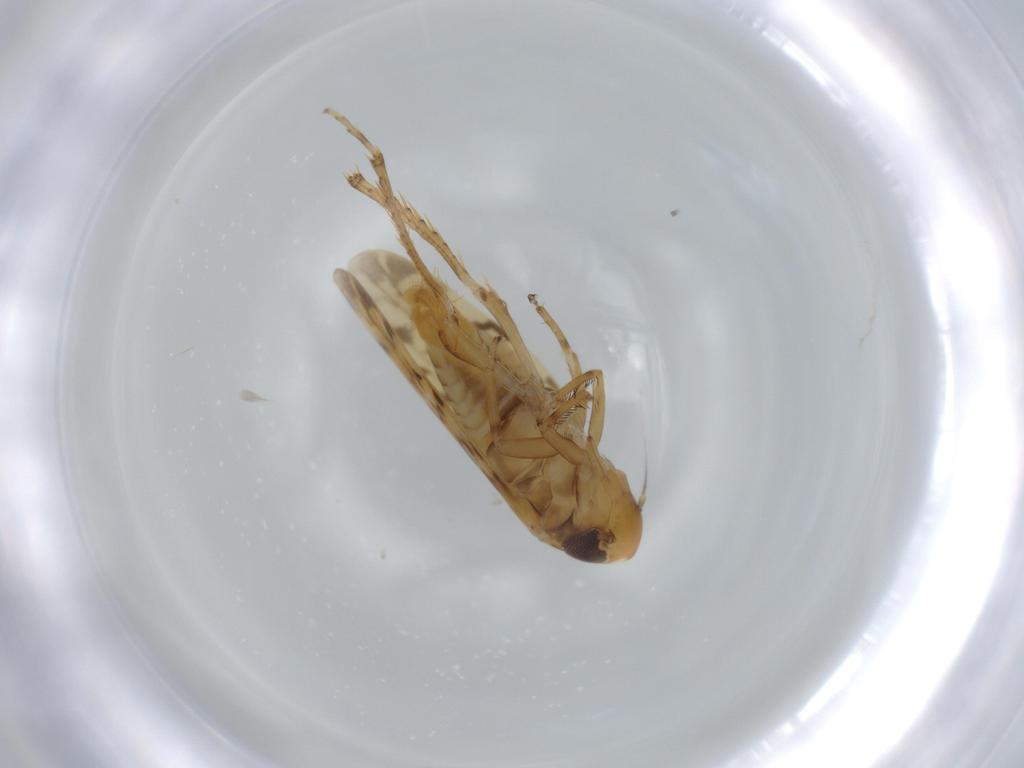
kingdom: Animalia
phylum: Arthropoda
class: Insecta
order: Hemiptera
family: Cicadellidae
